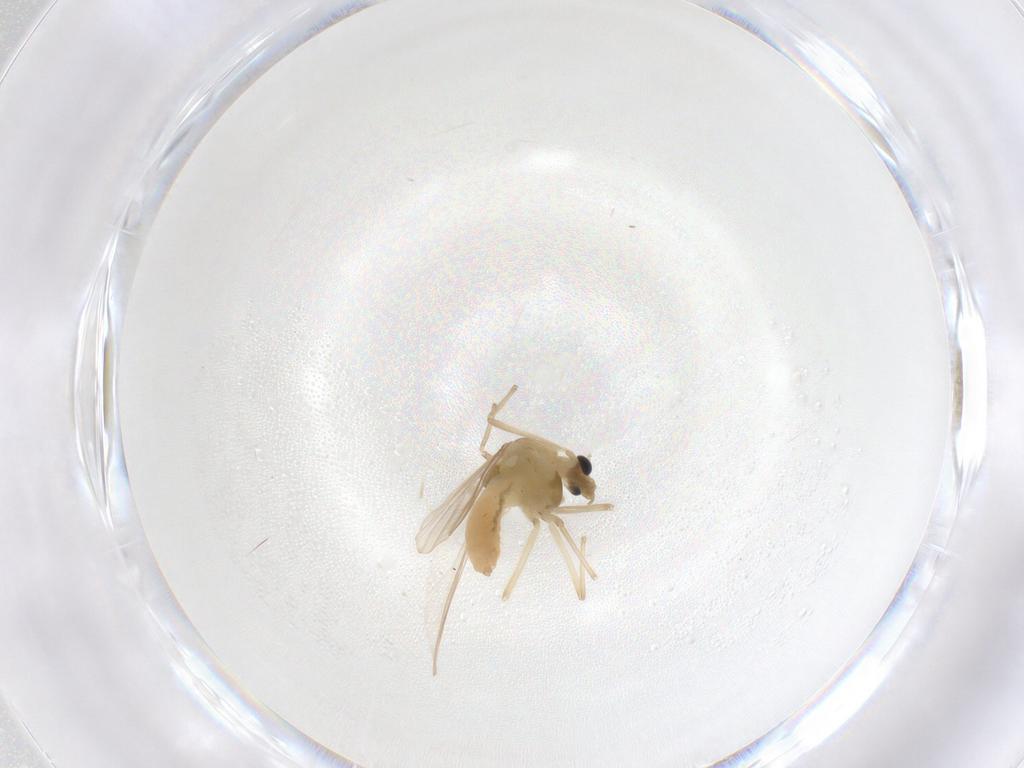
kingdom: Animalia
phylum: Arthropoda
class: Insecta
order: Diptera
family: Chironomidae
